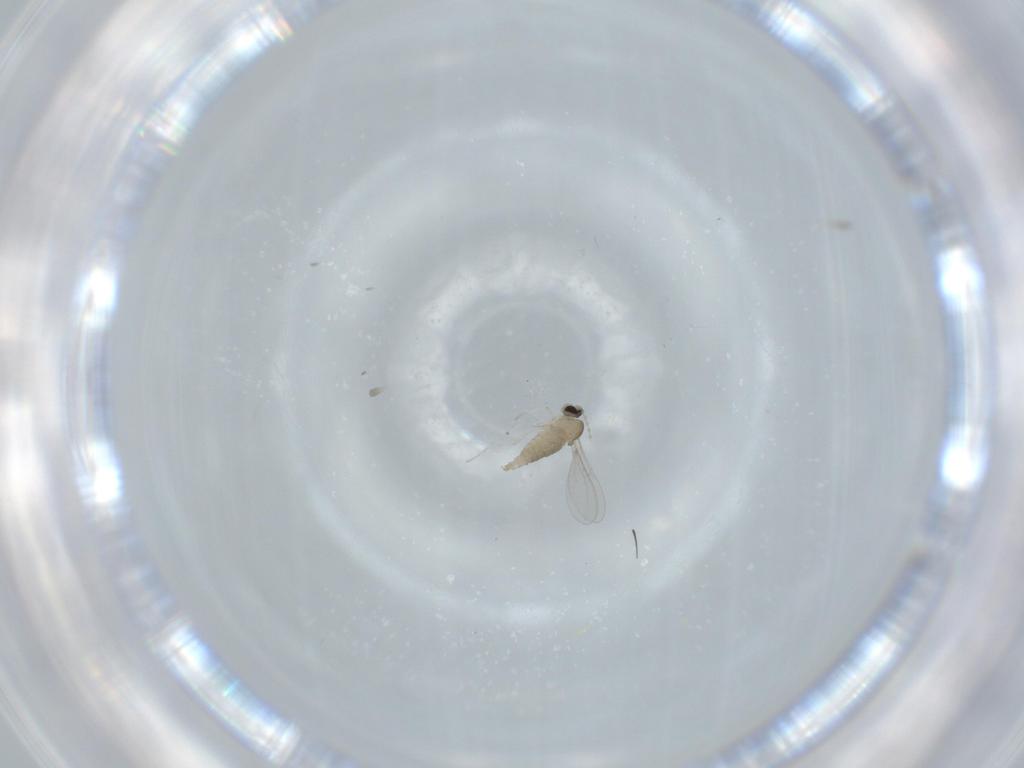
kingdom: Animalia
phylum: Arthropoda
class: Insecta
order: Diptera
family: Cecidomyiidae
